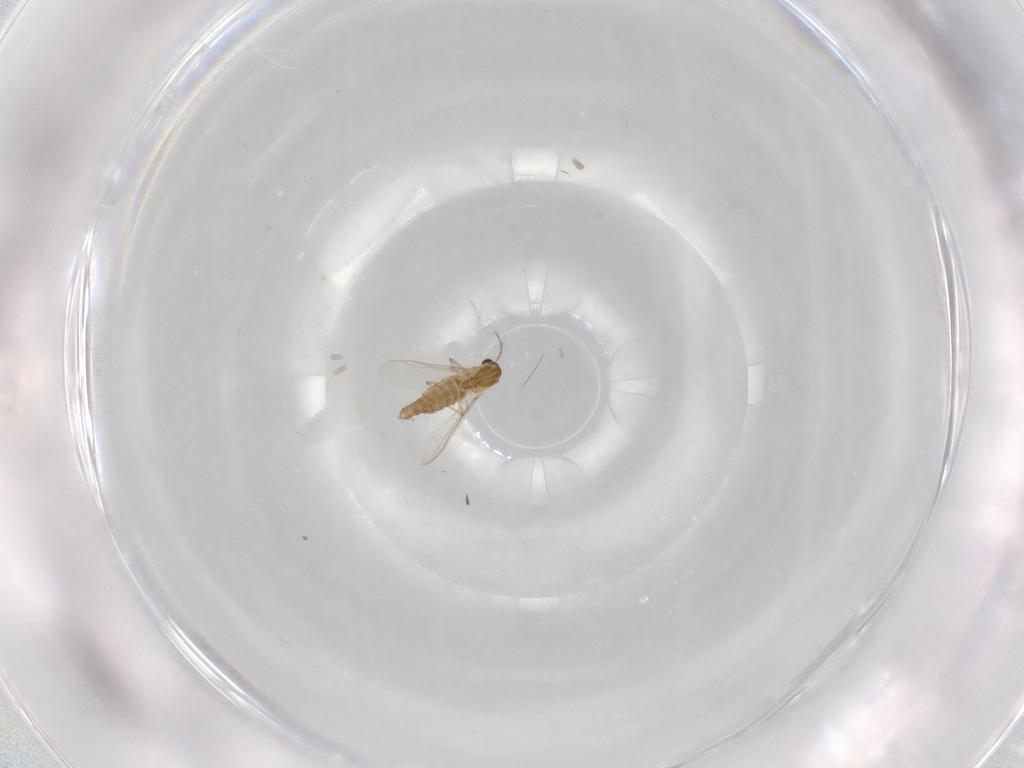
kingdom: Animalia
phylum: Arthropoda
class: Insecta
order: Diptera
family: Chironomidae
